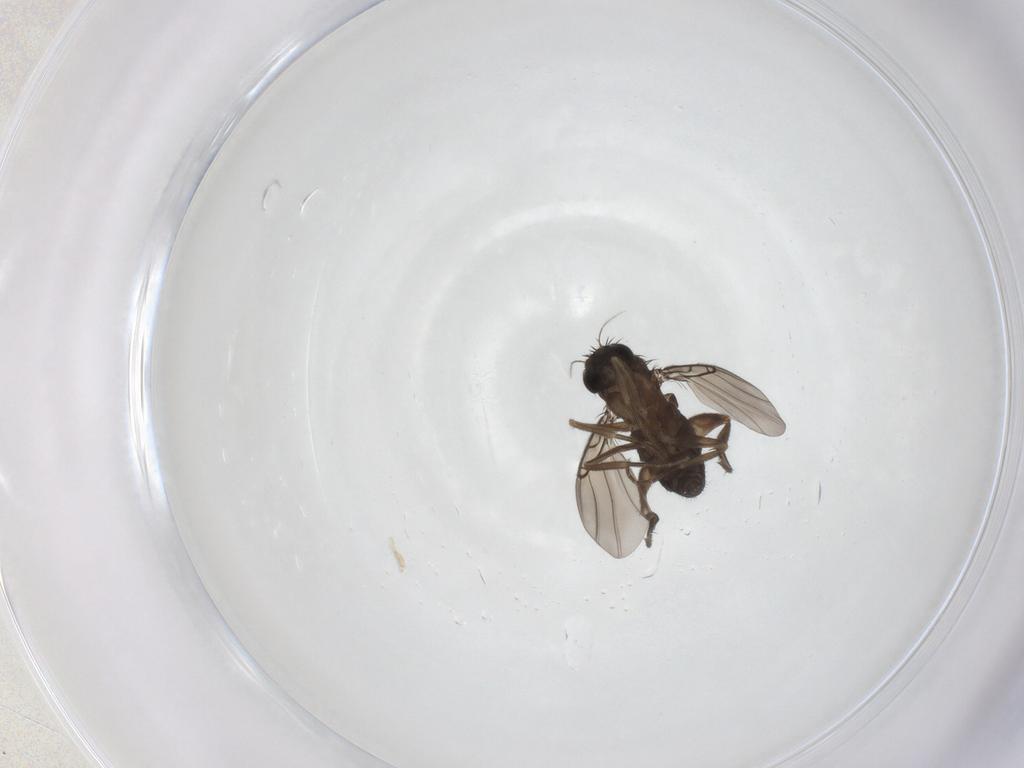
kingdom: Animalia
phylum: Arthropoda
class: Insecta
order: Diptera
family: Phoridae
